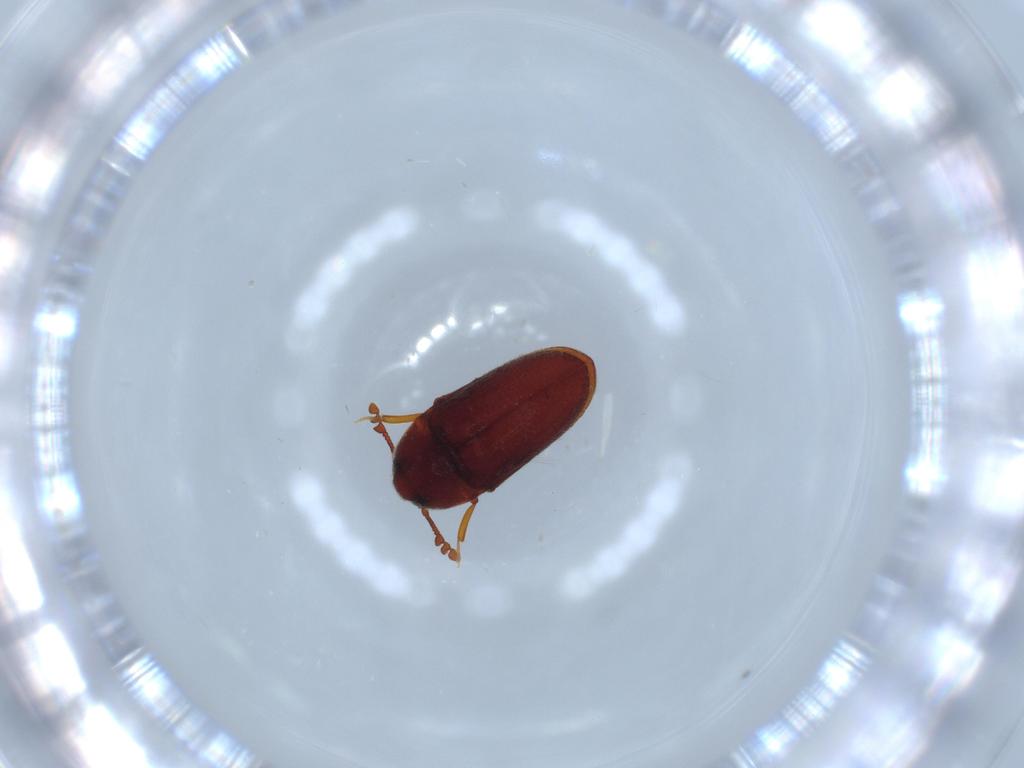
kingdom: Animalia
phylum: Arthropoda
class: Insecta
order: Coleoptera
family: Throscidae
